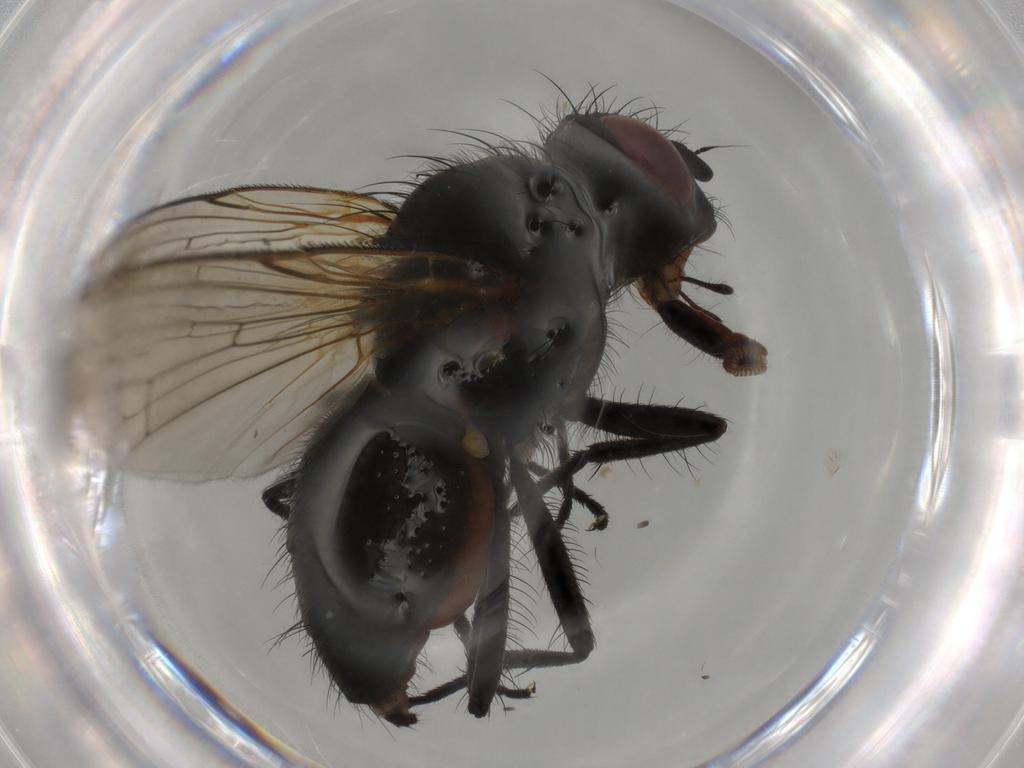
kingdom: Animalia
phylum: Arthropoda
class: Insecta
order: Diptera
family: Anthomyiidae
